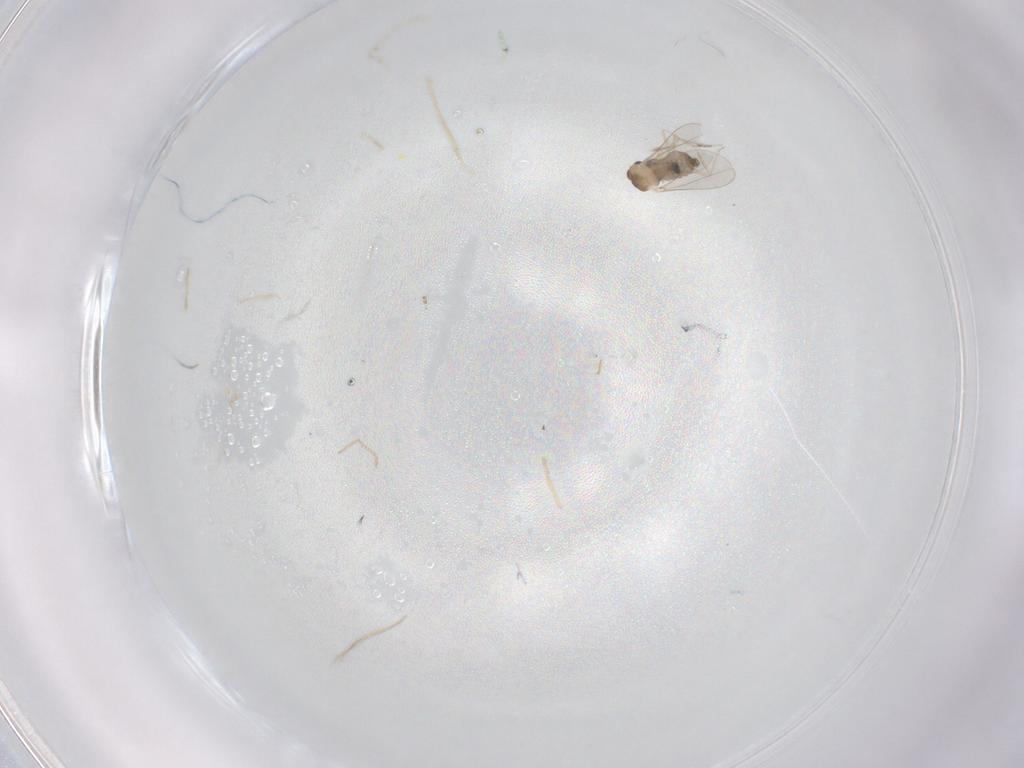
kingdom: Animalia
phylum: Arthropoda
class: Insecta
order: Diptera
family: Cecidomyiidae
